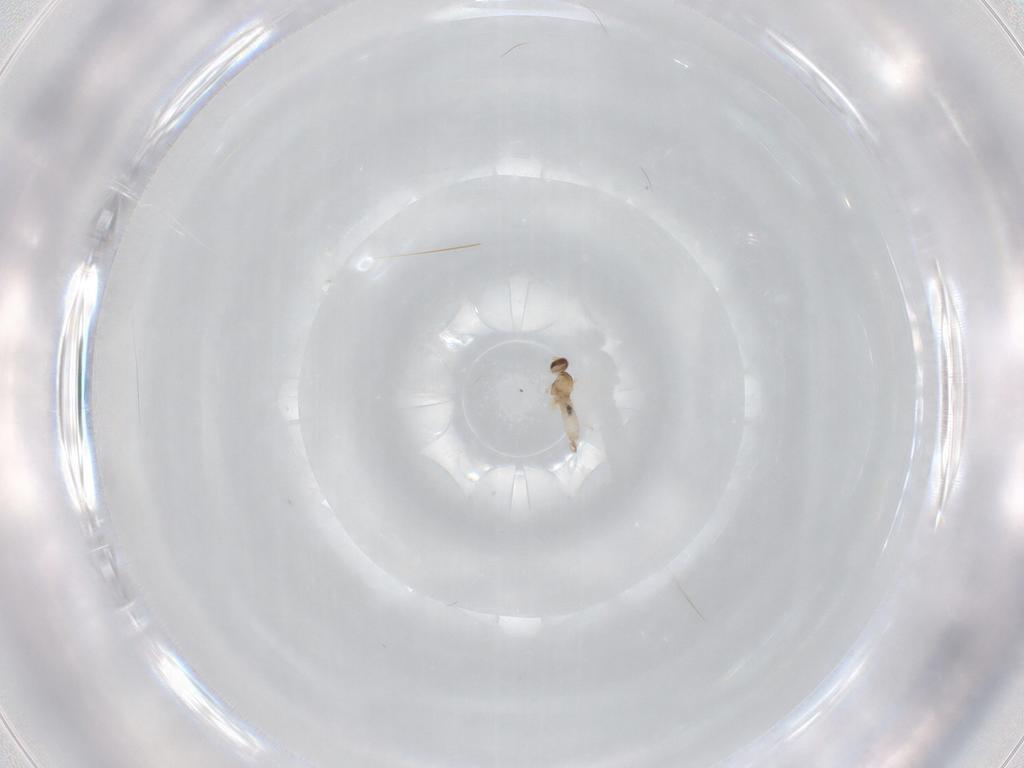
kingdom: Animalia
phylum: Arthropoda
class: Insecta
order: Diptera
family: Cecidomyiidae
